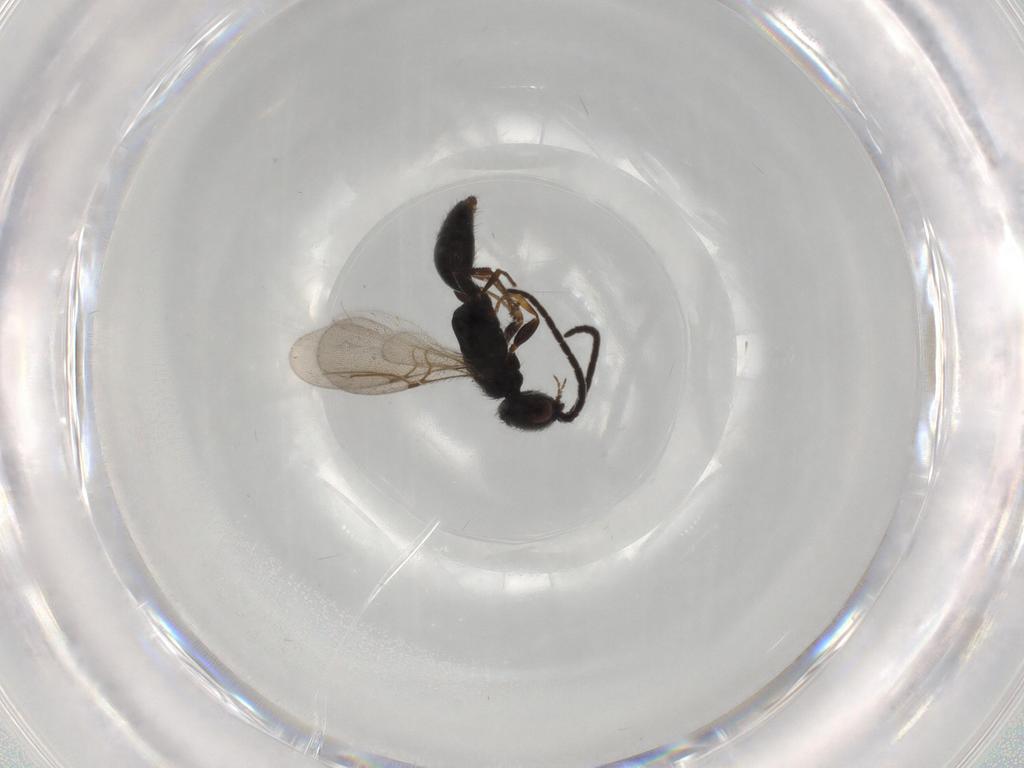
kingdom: Animalia
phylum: Arthropoda
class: Insecta
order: Hymenoptera
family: Bethylidae
